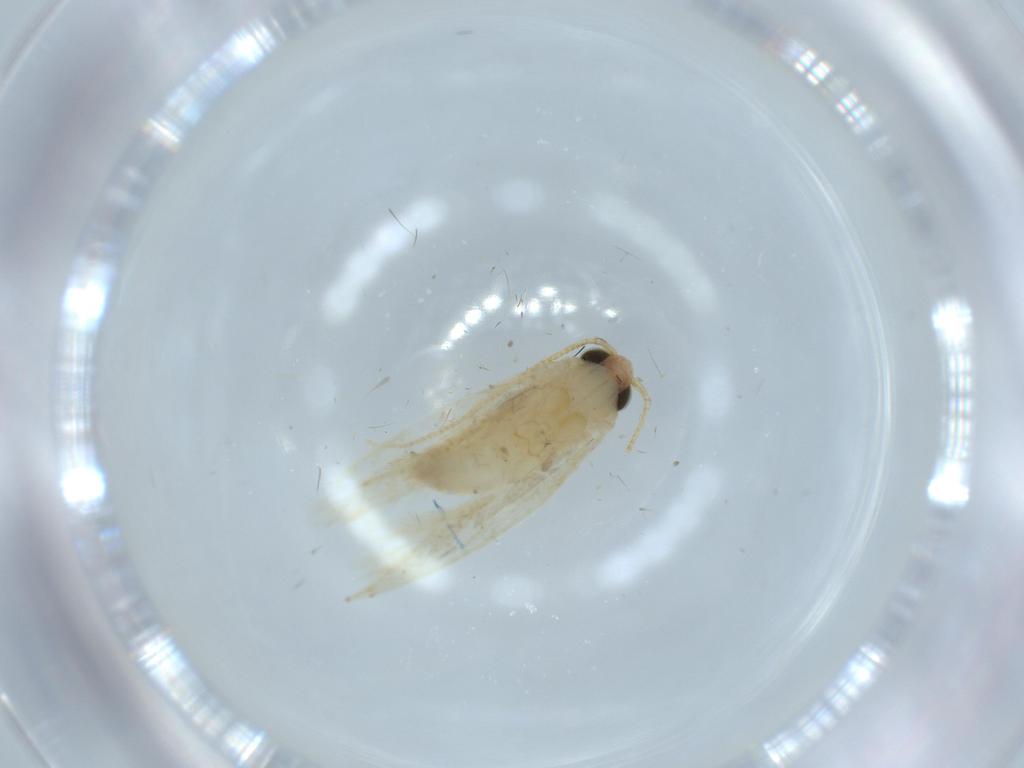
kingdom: Animalia
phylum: Arthropoda
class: Insecta
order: Lepidoptera
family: Tineidae
